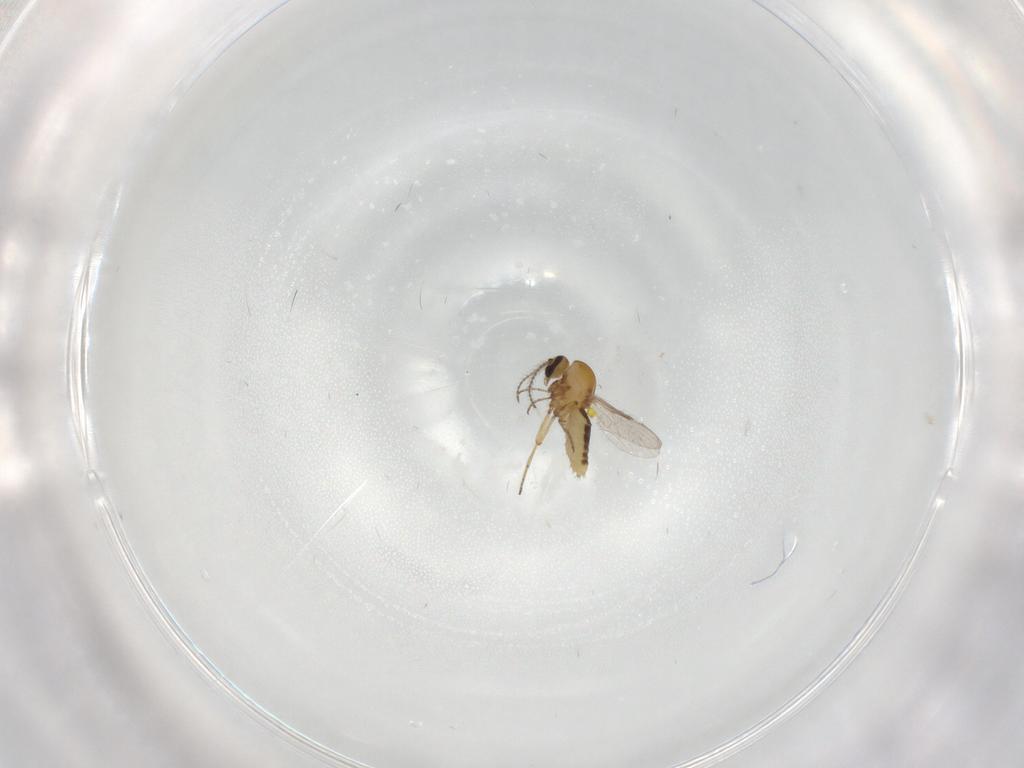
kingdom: Animalia
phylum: Arthropoda
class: Insecta
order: Diptera
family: Ceratopogonidae
